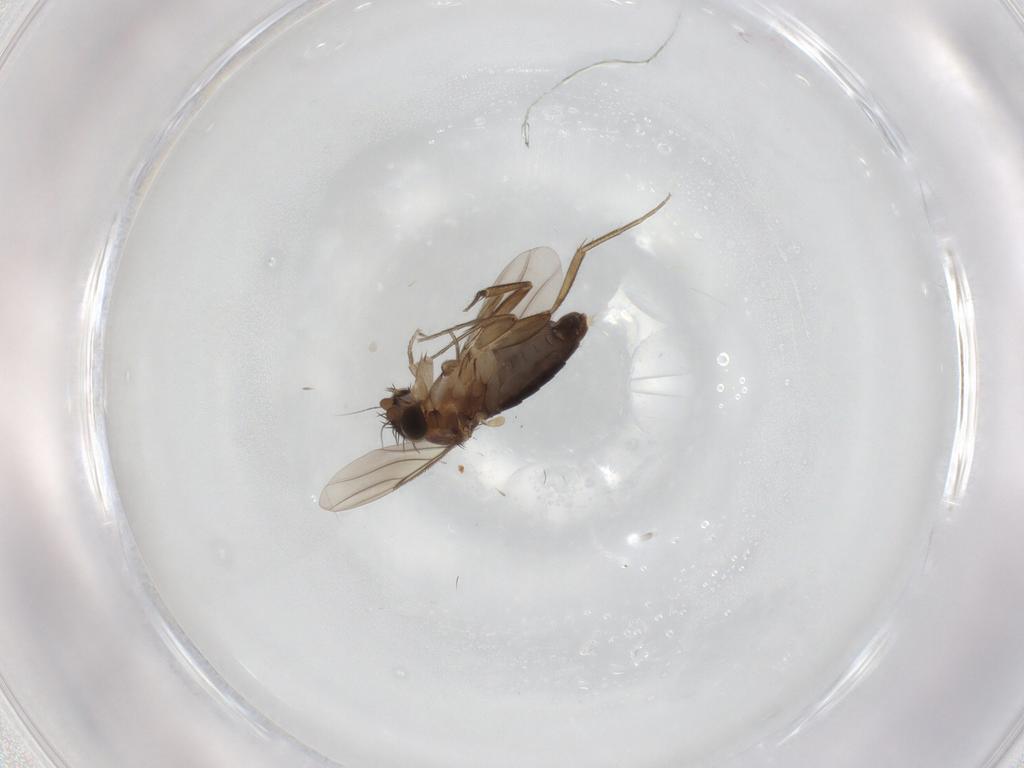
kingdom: Animalia
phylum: Arthropoda
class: Insecta
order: Diptera
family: Phoridae
